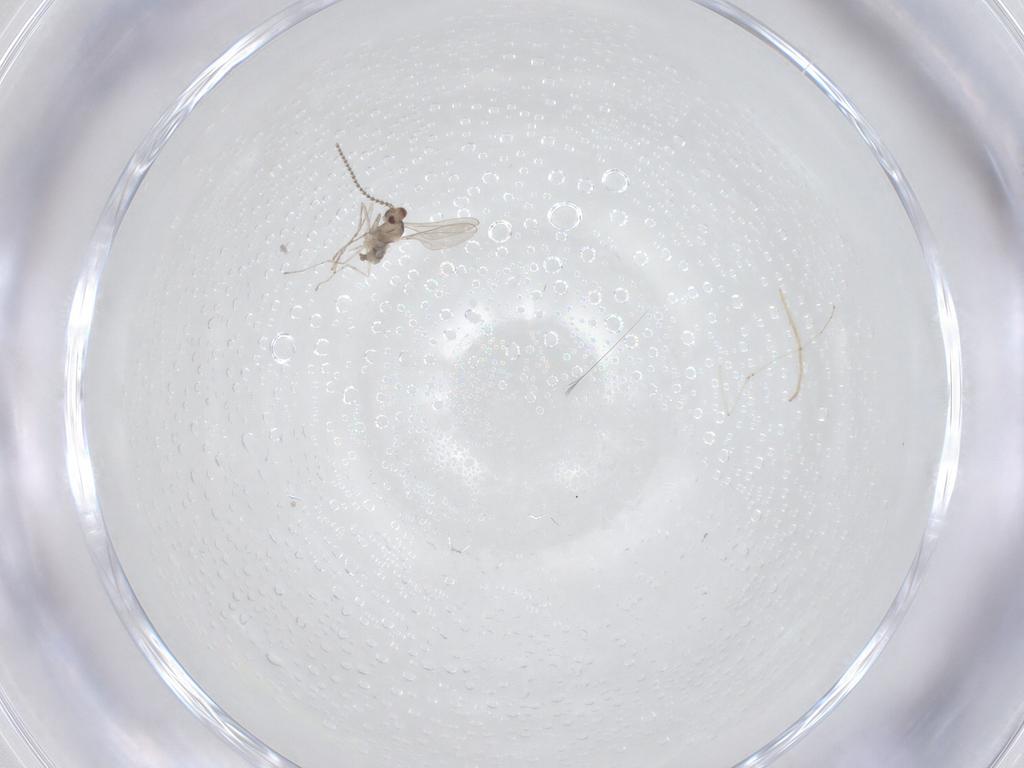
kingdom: Animalia
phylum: Arthropoda
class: Insecta
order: Diptera
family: Cecidomyiidae
